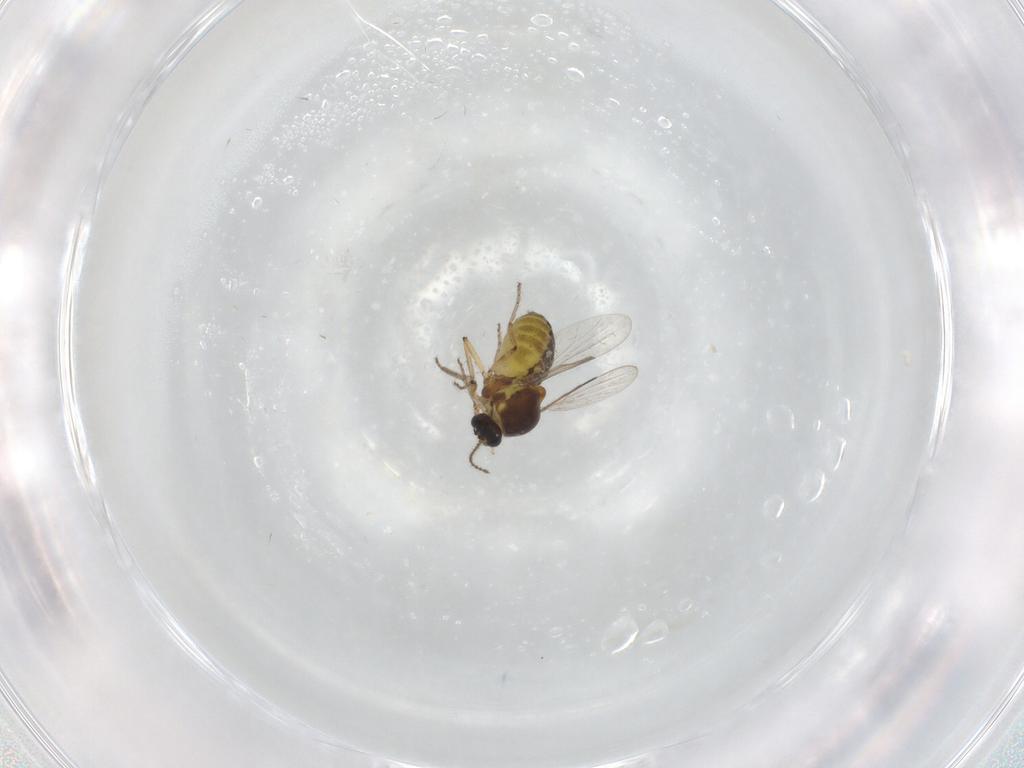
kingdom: Animalia
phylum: Arthropoda
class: Insecta
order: Diptera
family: Ceratopogonidae
